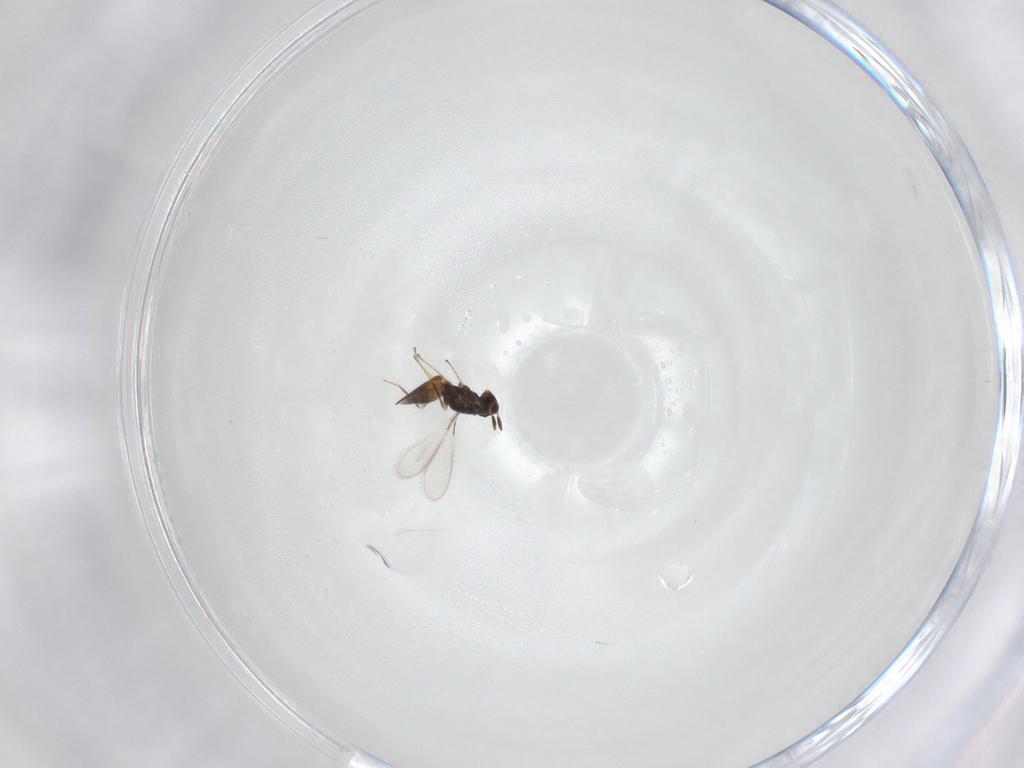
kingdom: Animalia
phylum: Arthropoda
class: Insecta
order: Hymenoptera
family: Mymaridae
